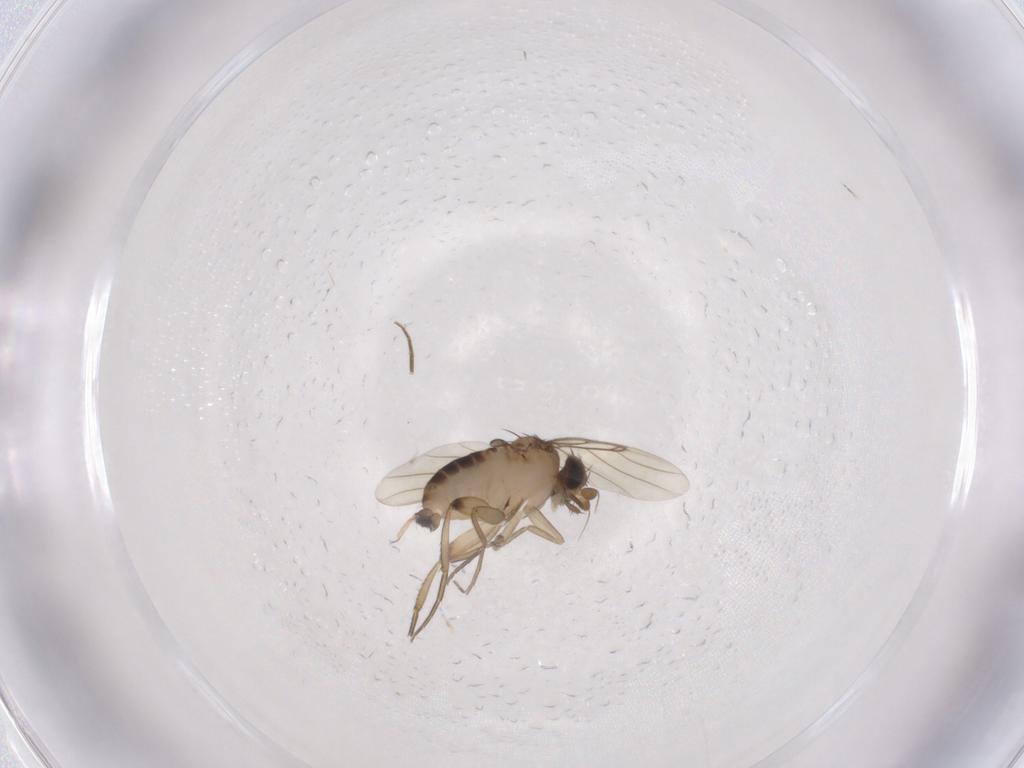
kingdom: Animalia
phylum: Arthropoda
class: Insecta
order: Diptera
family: Phoridae
